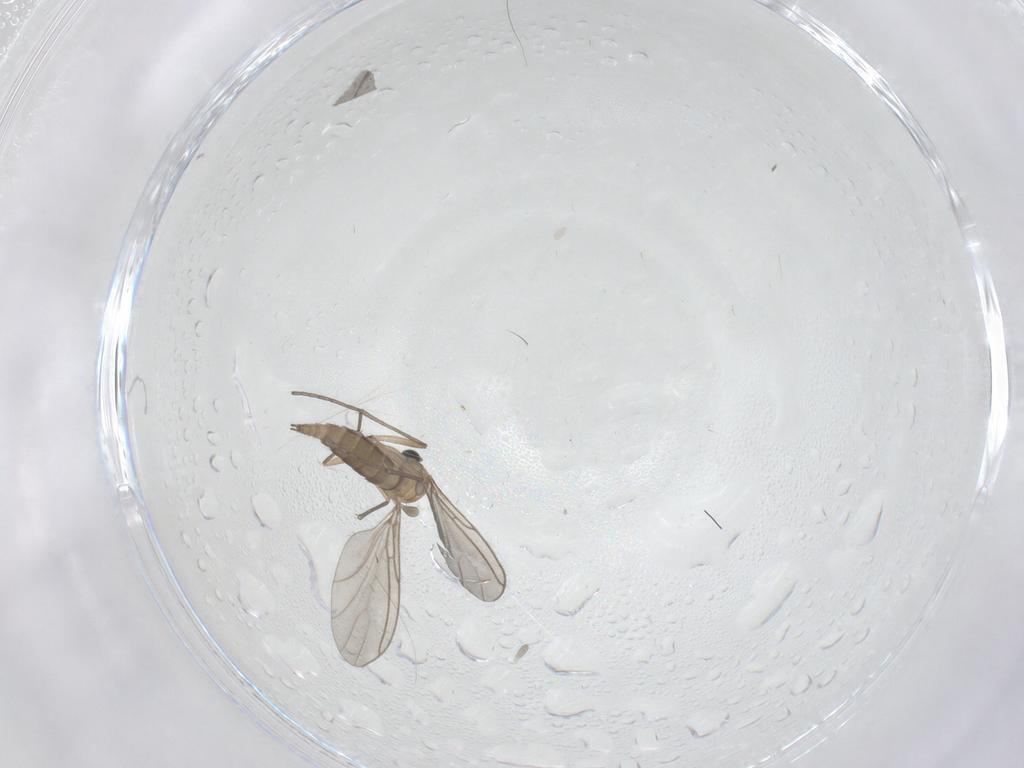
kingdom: Animalia
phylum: Arthropoda
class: Insecta
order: Diptera
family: Sciaridae
